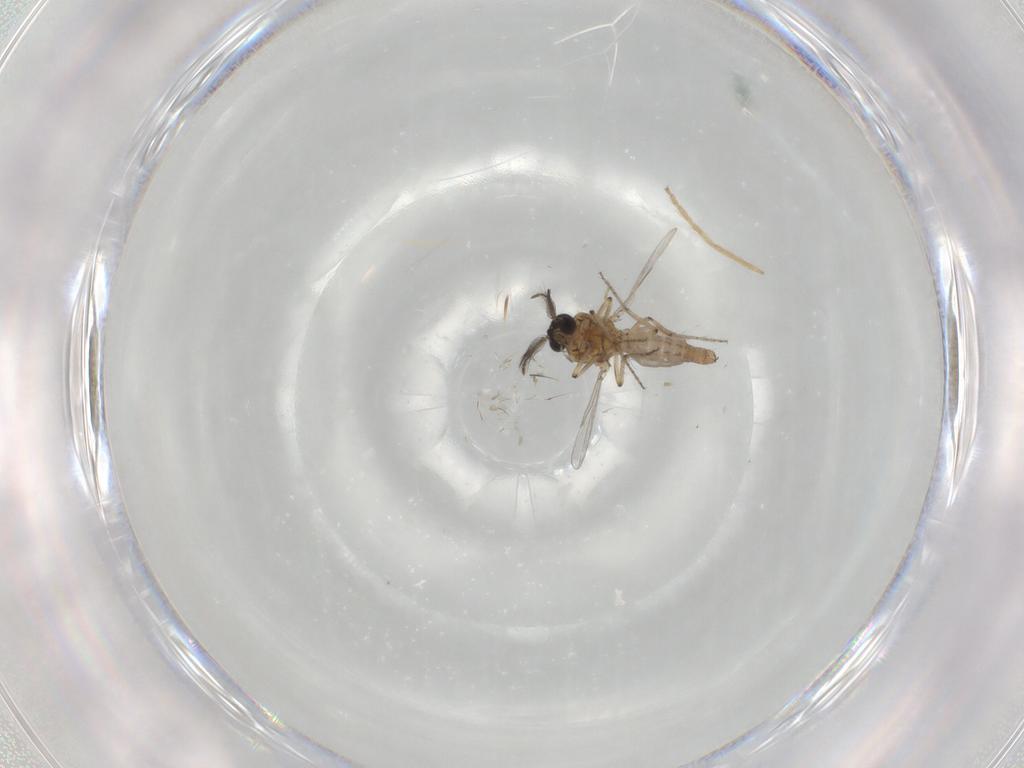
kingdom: Animalia
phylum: Arthropoda
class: Insecta
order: Diptera
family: Ceratopogonidae
